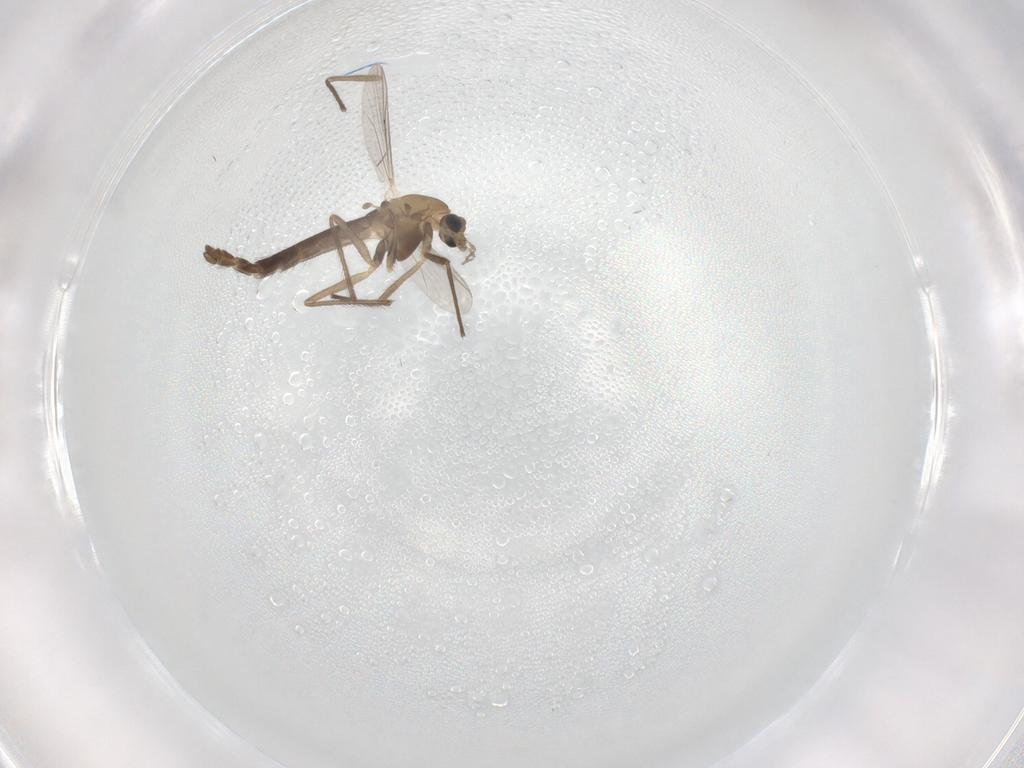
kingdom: Animalia
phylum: Arthropoda
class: Insecta
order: Diptera
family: Chironomidae
